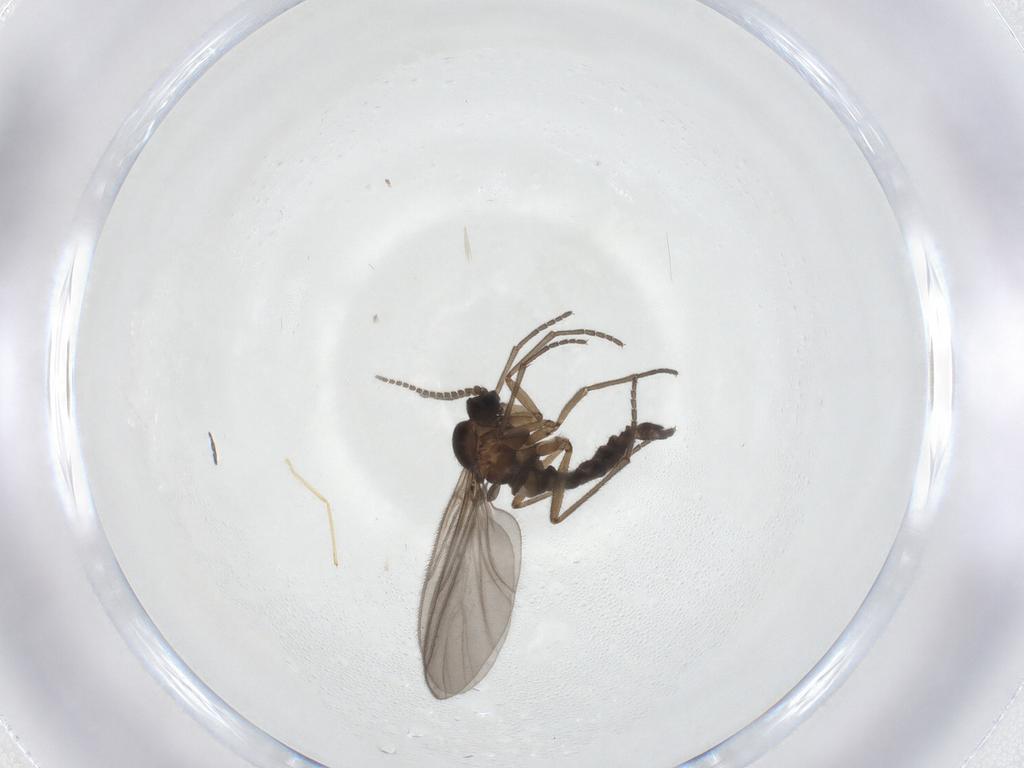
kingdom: Animalia
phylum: Arthropoda
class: Insecta
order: Diptera
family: Sciaridae
